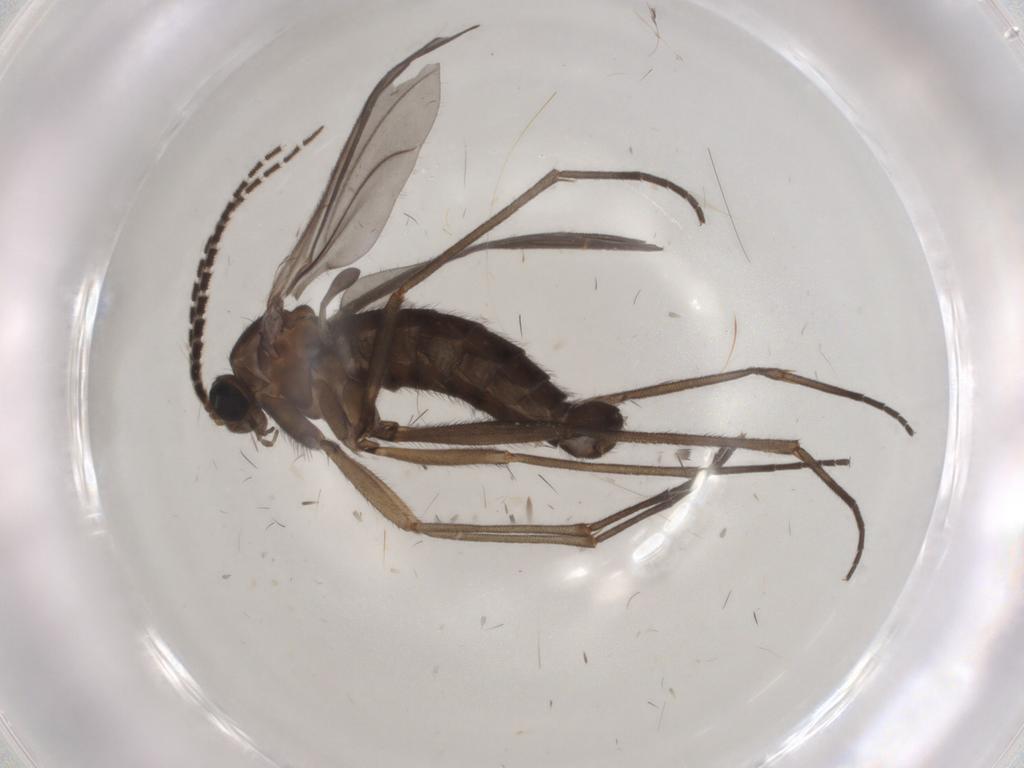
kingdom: Animalia
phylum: Arthropoda
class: Insecta
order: Diptera
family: Sciaridae
